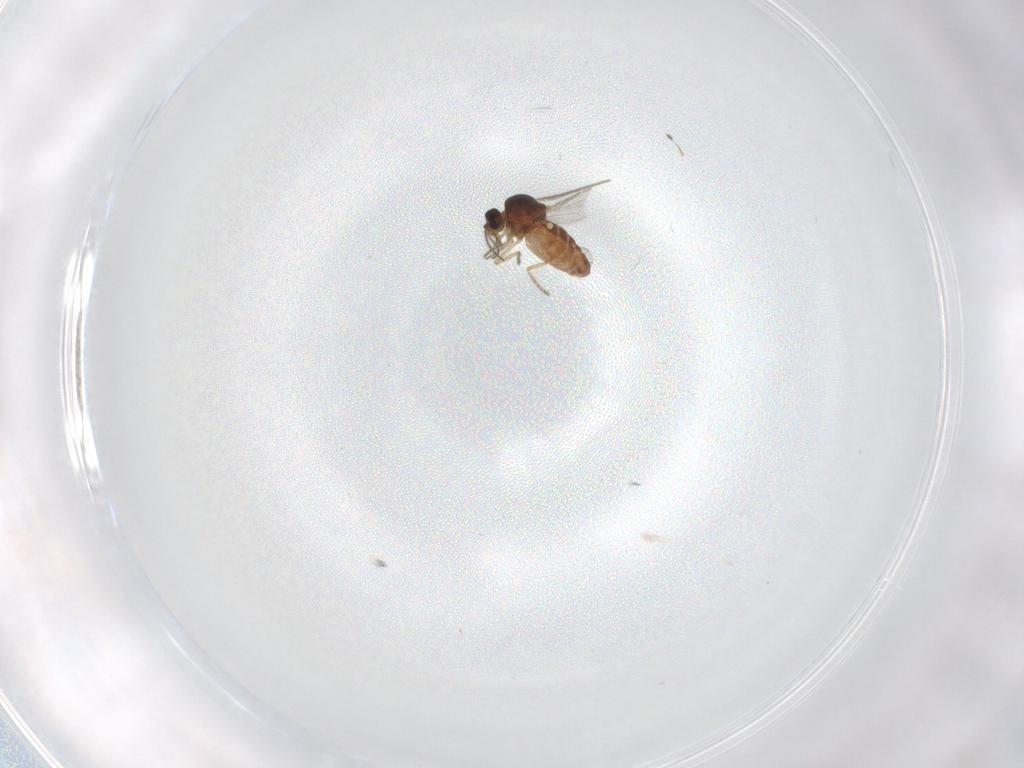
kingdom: Animalia
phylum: Arthropoda
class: Insecta
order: Diptera
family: Ceratopogonidae
